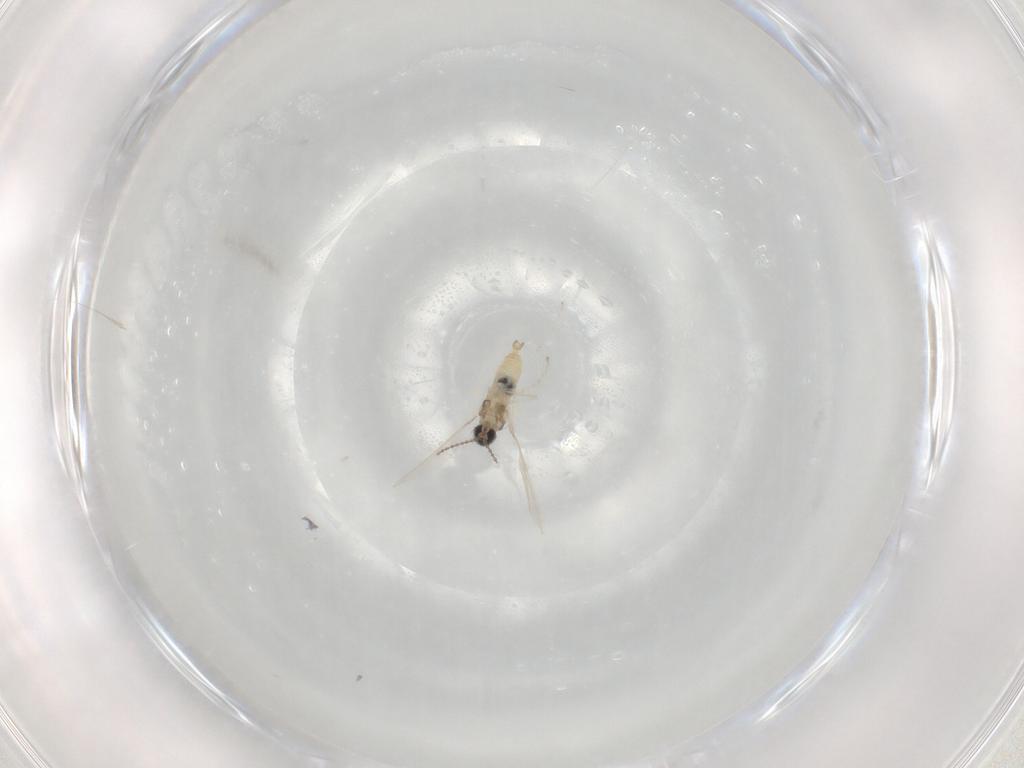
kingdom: Animalia
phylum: Arthropoda
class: Insecta
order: Diptera
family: Cecidomyiidae
